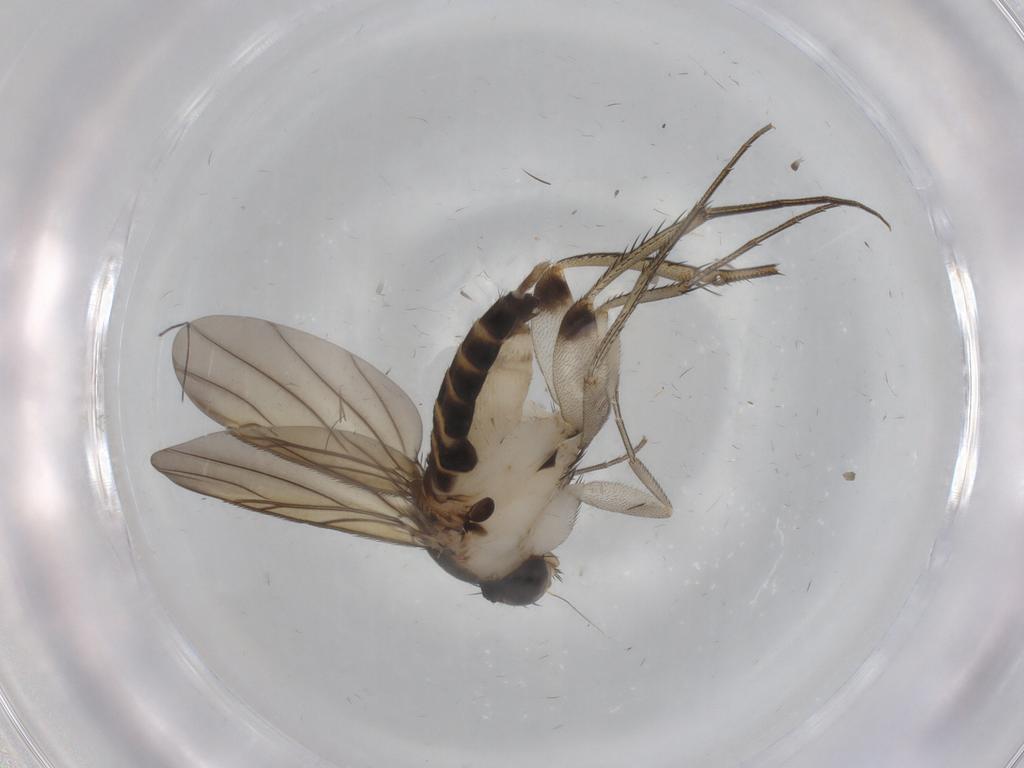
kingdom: Animalia
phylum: Arthropoda
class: Insecta
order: Diptera
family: Phoridae
